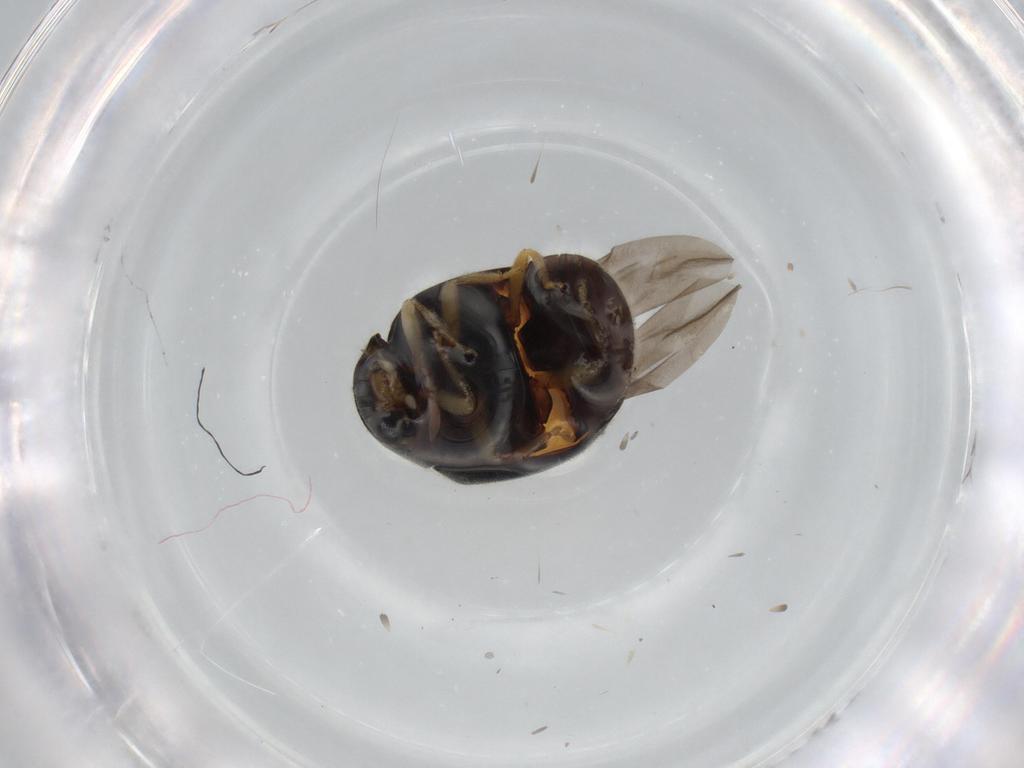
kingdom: Animalia
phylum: Arthropoda
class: Insecta
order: Coleoptera
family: Coccinellidae
